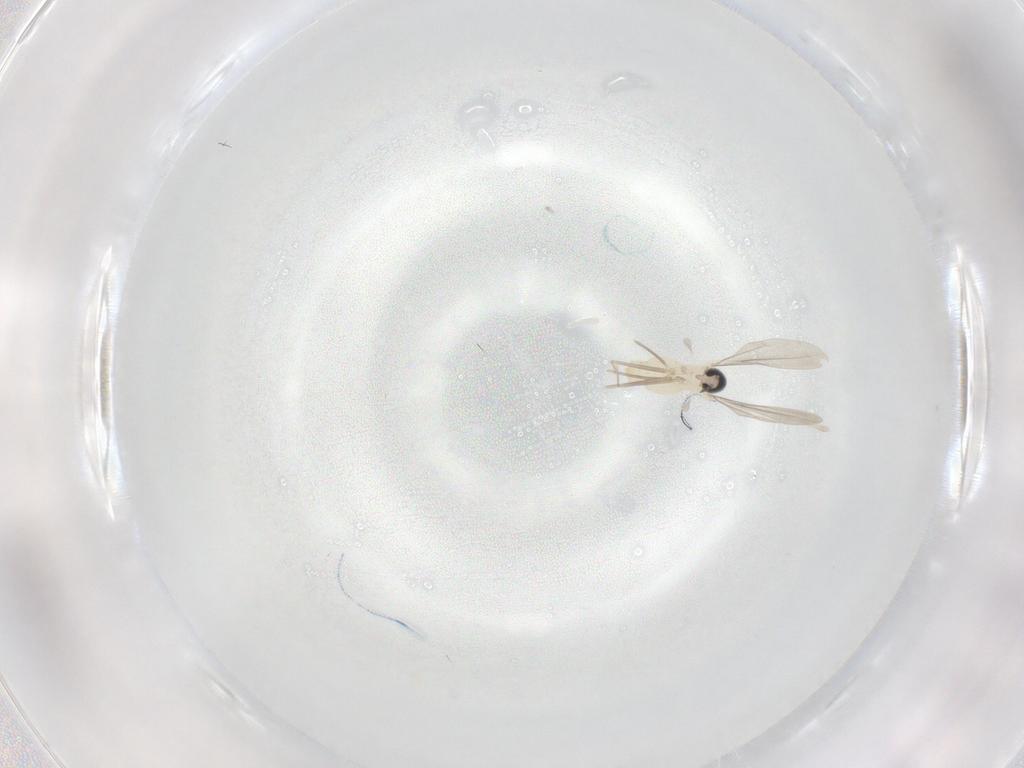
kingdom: Animalia
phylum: Arthropoda
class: Insecta
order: Diptera
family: Cecidomyiidae
